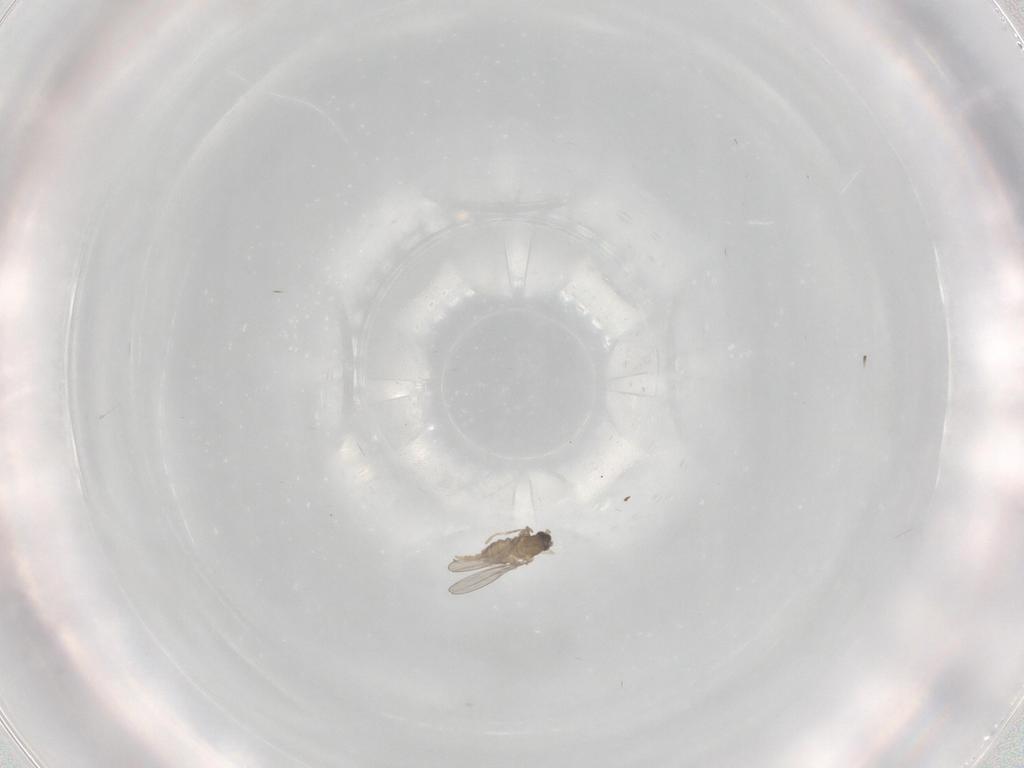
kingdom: Animalia
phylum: Arthropoda
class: Insecta
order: Diptera
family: Cecidomyiidae
